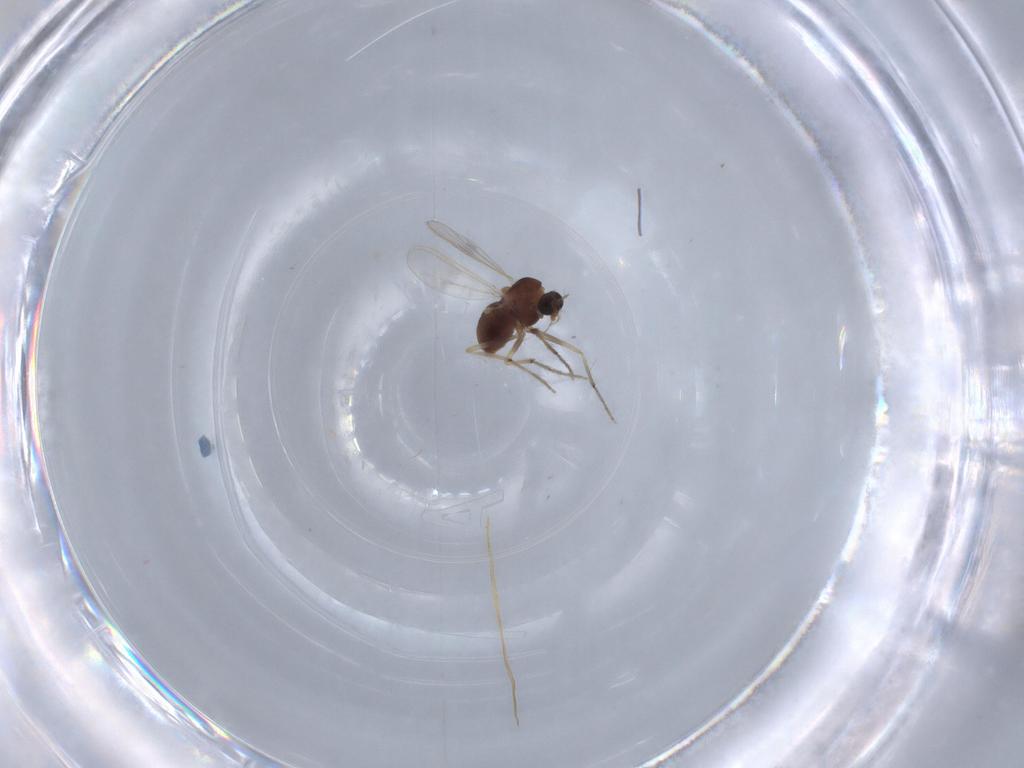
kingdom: Animalia
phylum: Arthropoda
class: Insecta
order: Diptera
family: Chironomidae
